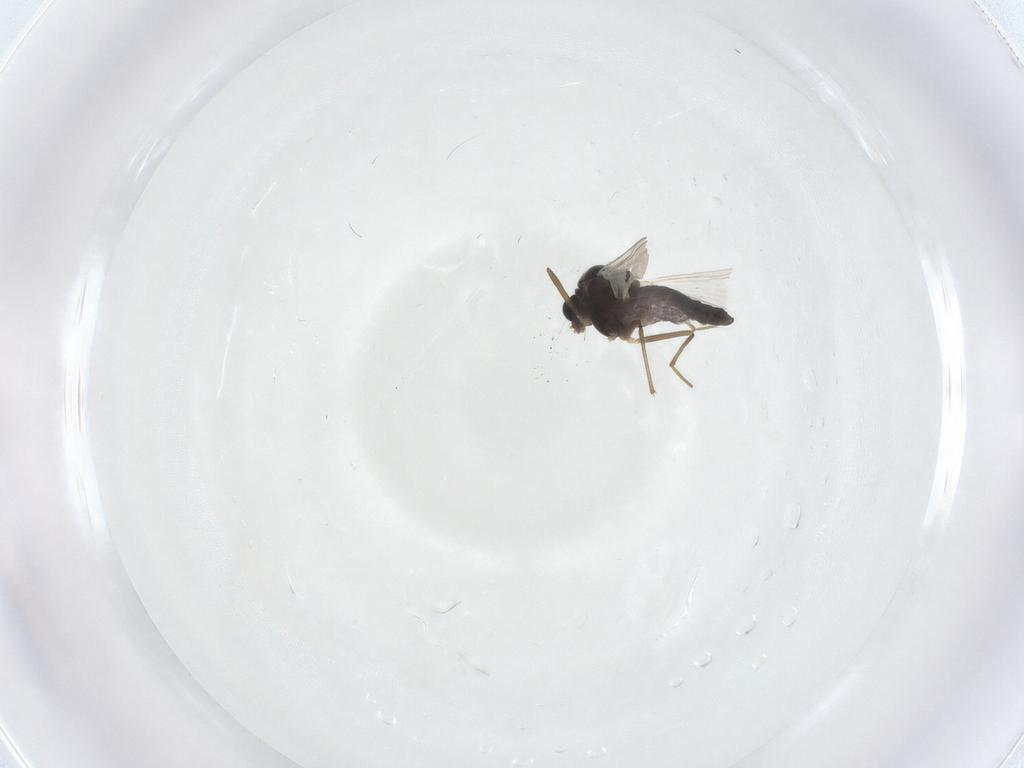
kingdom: Animalia
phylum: Arthropoda
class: Insecta
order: Diptera
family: Chironomidae
